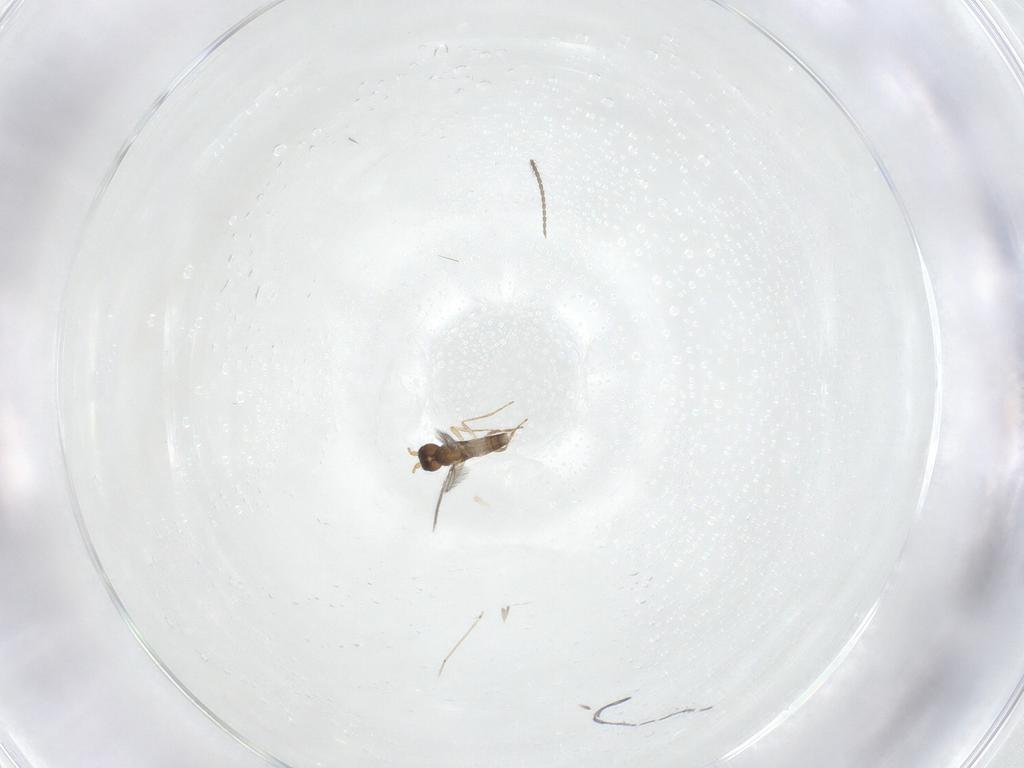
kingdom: Animalia
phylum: Arthropoda
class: Insecta
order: Diptera
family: Cecidomyiidae
